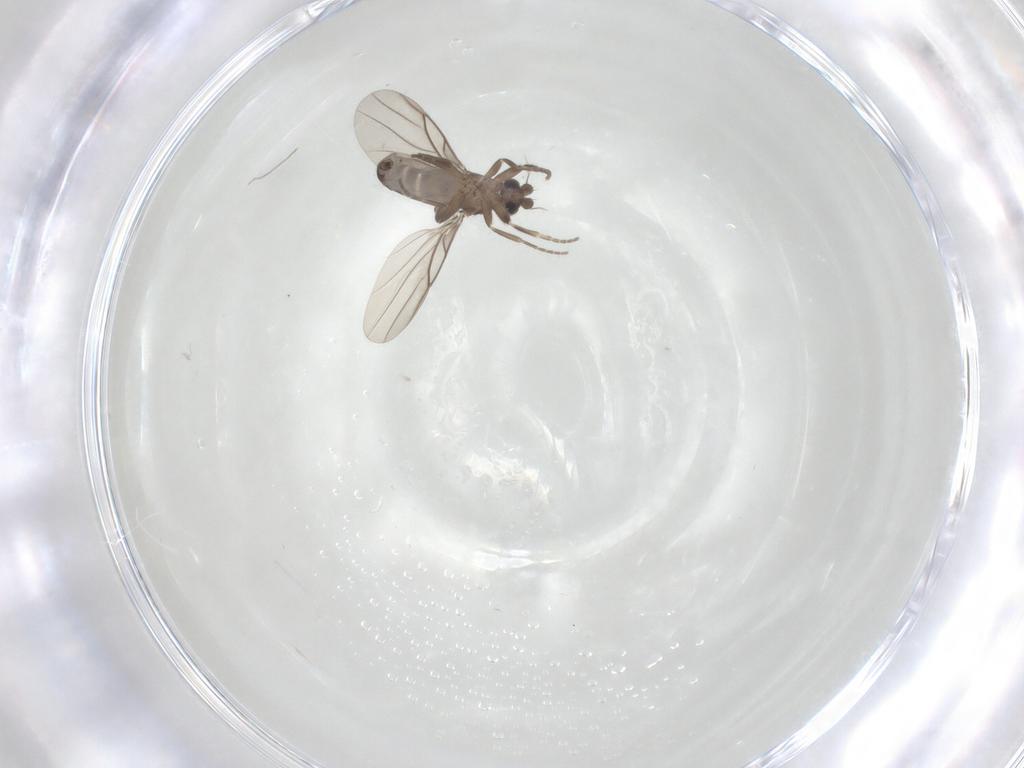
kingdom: Animalia
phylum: Arthropoda
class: Insecta
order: Diptera
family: Phoridae
